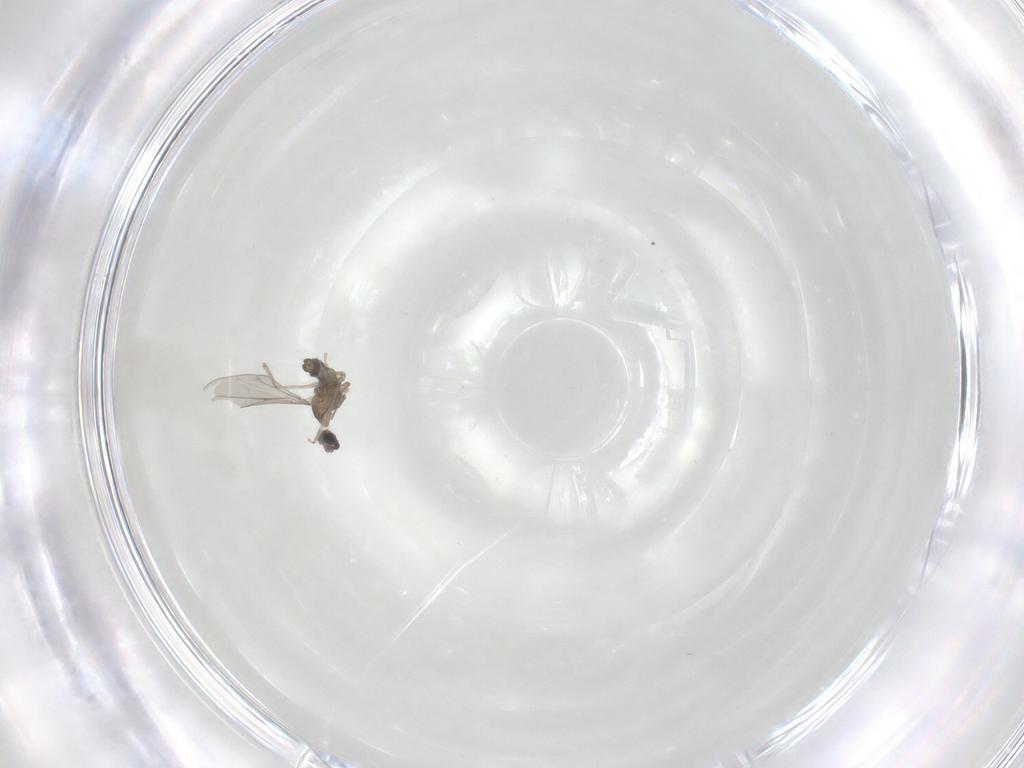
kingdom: Animalia
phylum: Arthropoda
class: Insecta
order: Diptera
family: Cecidomyiidae
